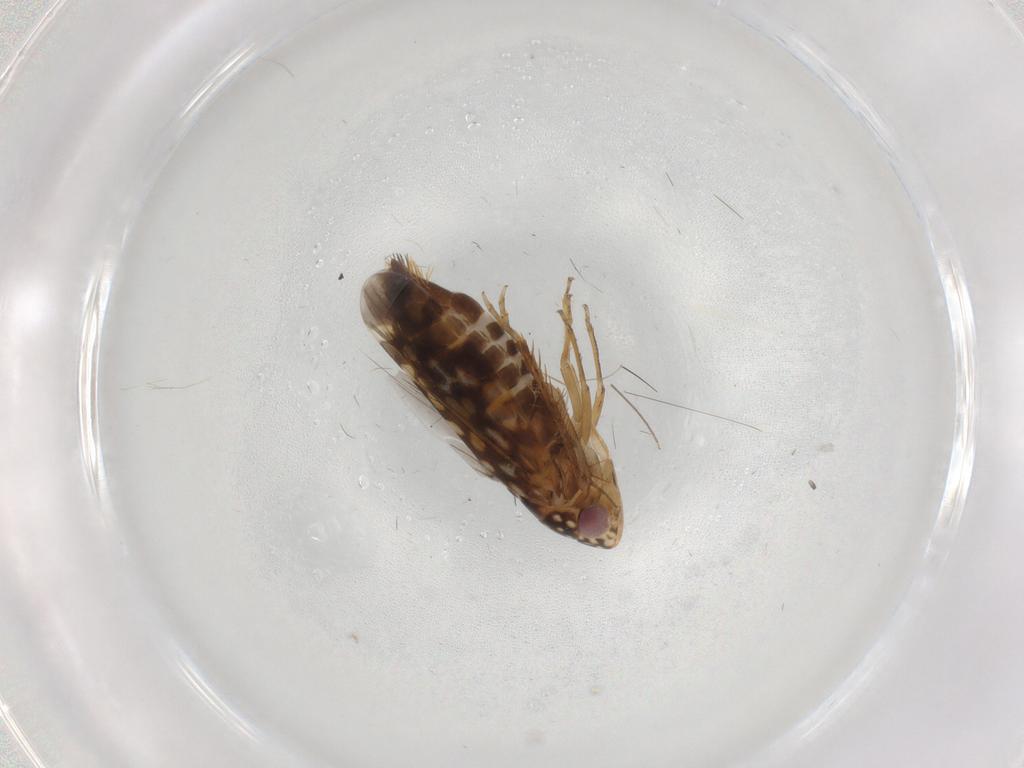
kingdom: Animalia
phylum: Arthropoda
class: Insecta
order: Hemiptera
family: Cicadellidae
